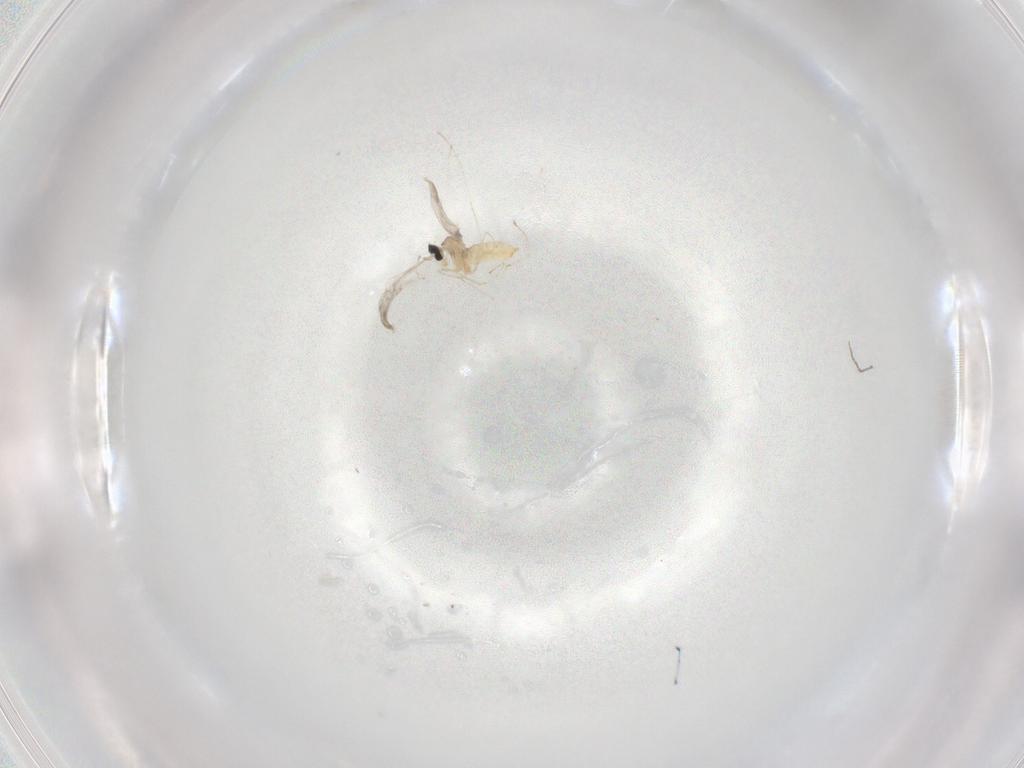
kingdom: Animalia
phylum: Arthropoda
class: Insecta
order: Diptera
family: Cecidomyiidae
